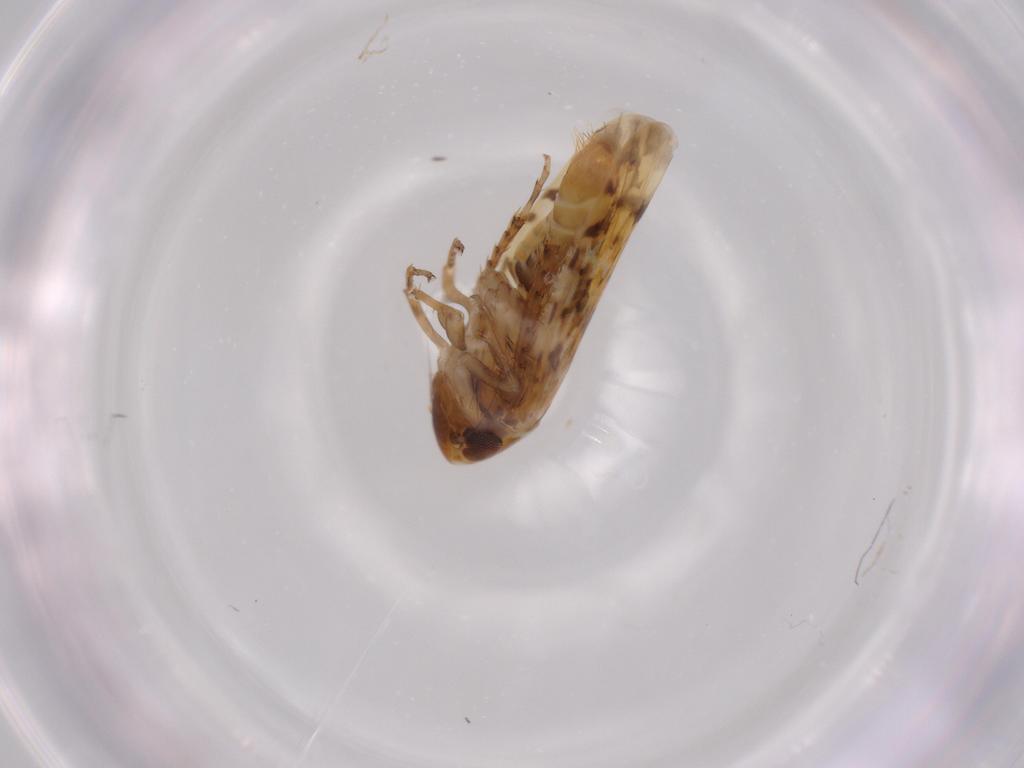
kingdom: Animalia
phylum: Arthropoda
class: Insecta
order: Hemiptera
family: Cicadellidae
